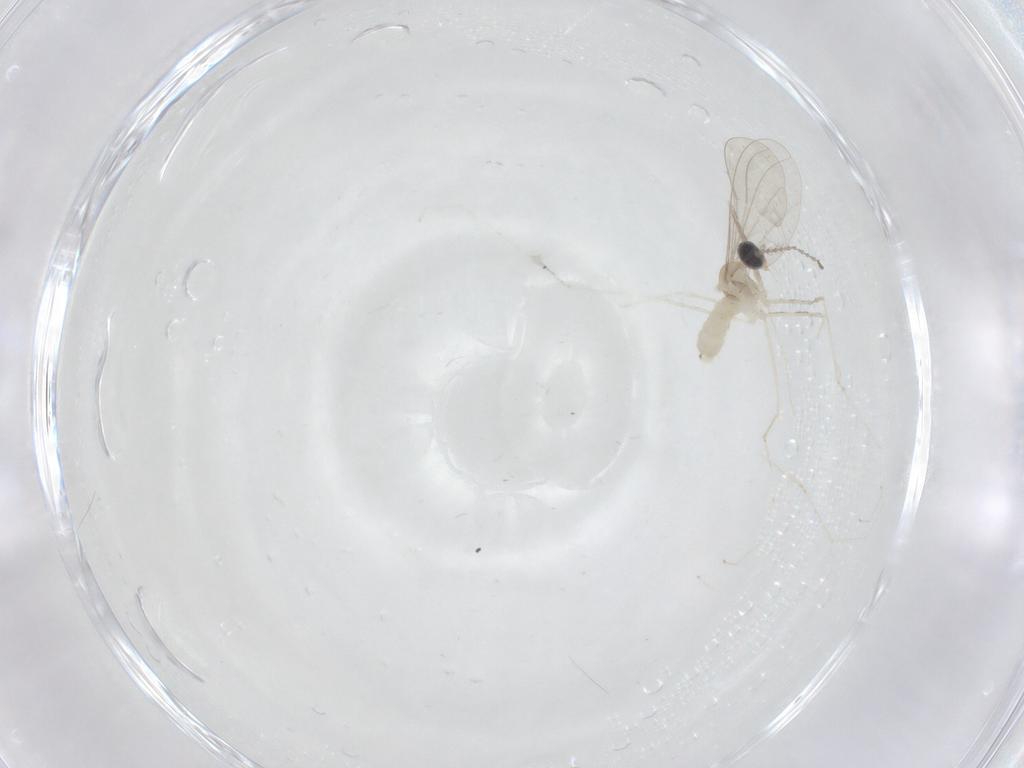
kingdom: Animalia
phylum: Arthropoda
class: Insecta
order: Diptera
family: Cecidomyiidae
